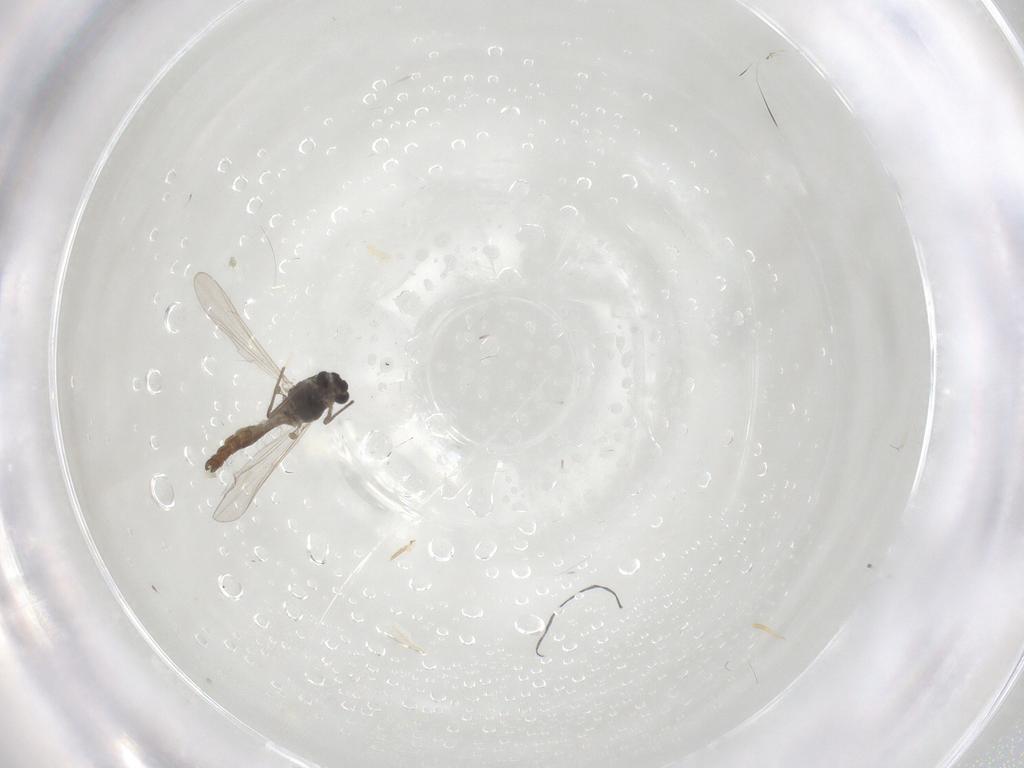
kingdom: Animalia
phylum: Arthropoda
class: Insecta
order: Diptera
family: Chironomidae
